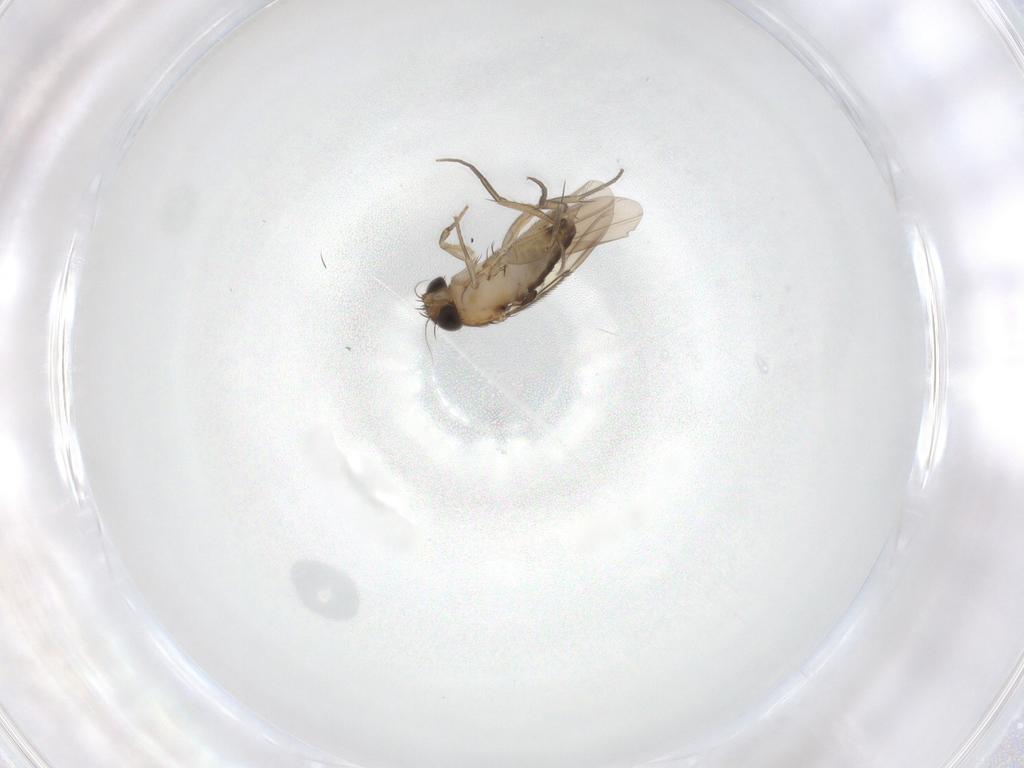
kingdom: Animalia
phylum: Arthropoda
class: Insecta
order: Diptera
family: Phoridae
